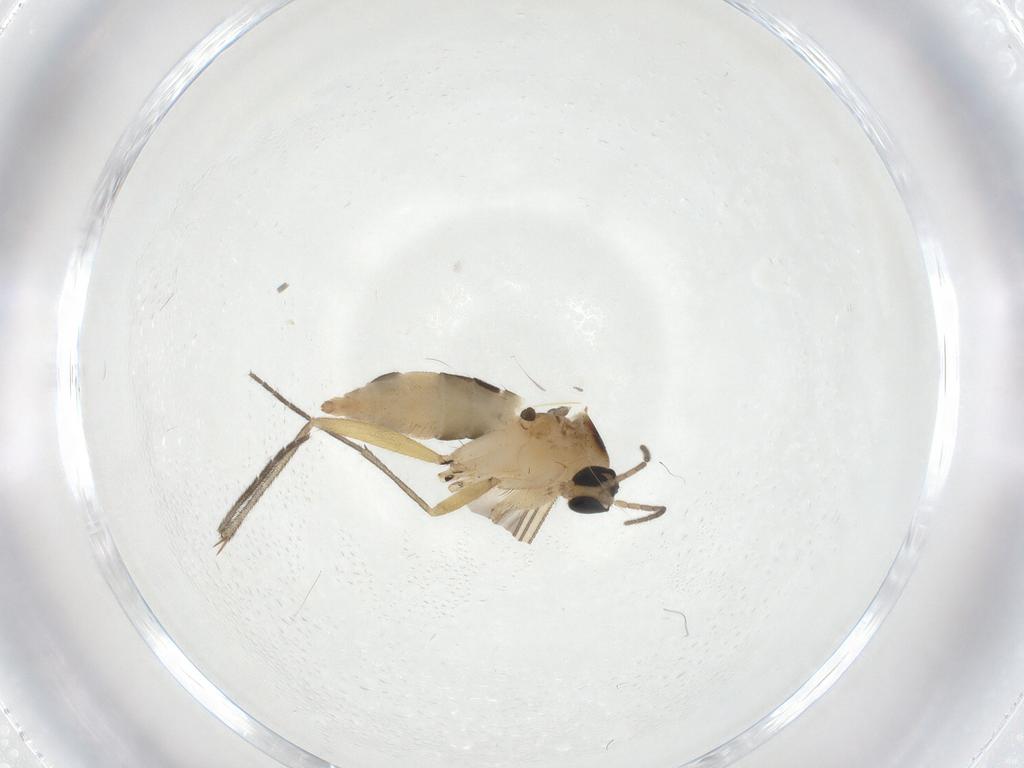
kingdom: Animalia
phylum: Arthropoda
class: Insecta
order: Diptera
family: Sciaridae
